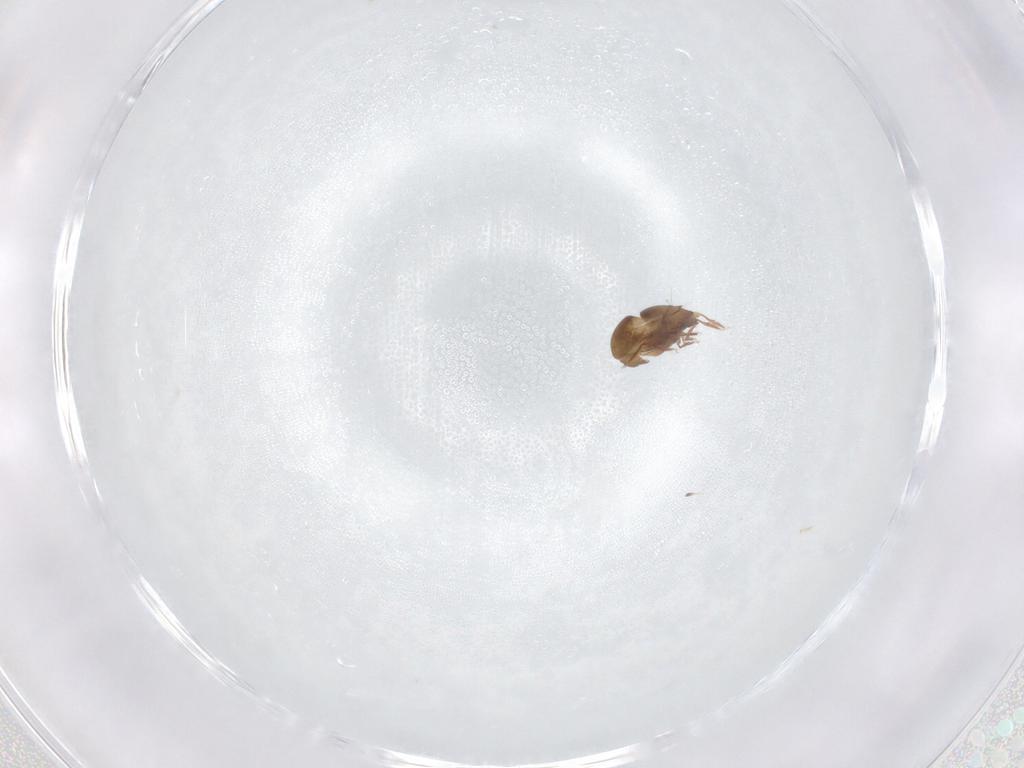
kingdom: Animalia
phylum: Arthropoda
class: Arachnida
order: Sarcoptiformes
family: Mochlozetidae
